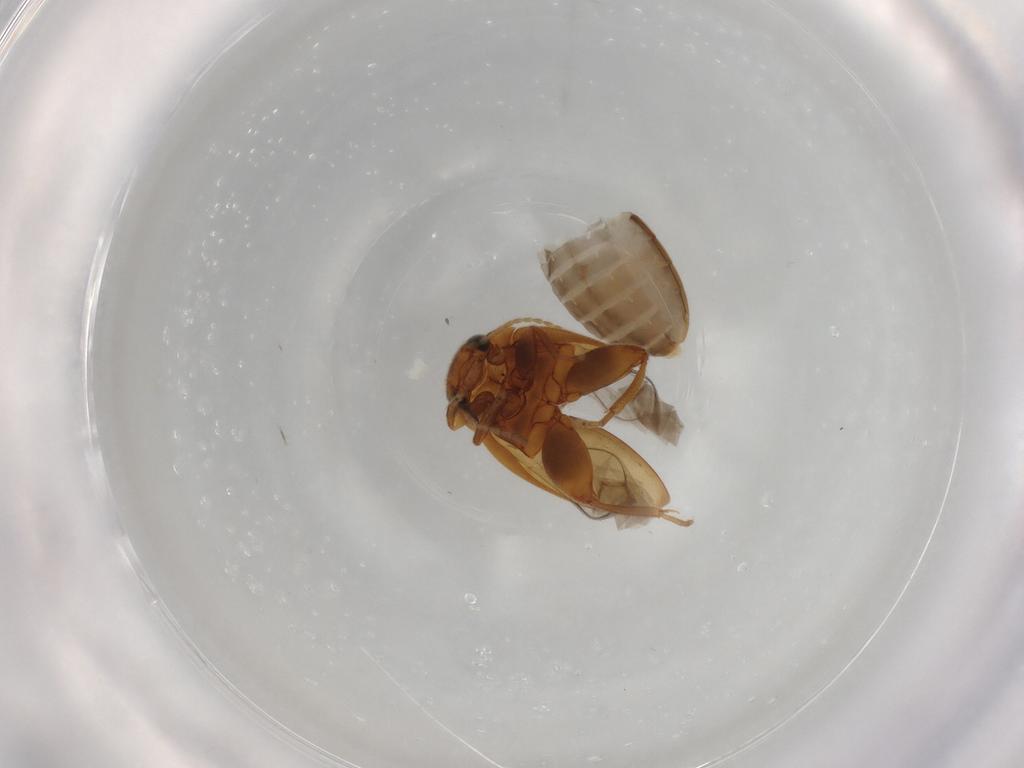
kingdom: Animalia
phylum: Arthropoda
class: Insecta
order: Coleoptera
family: Scirtidae
